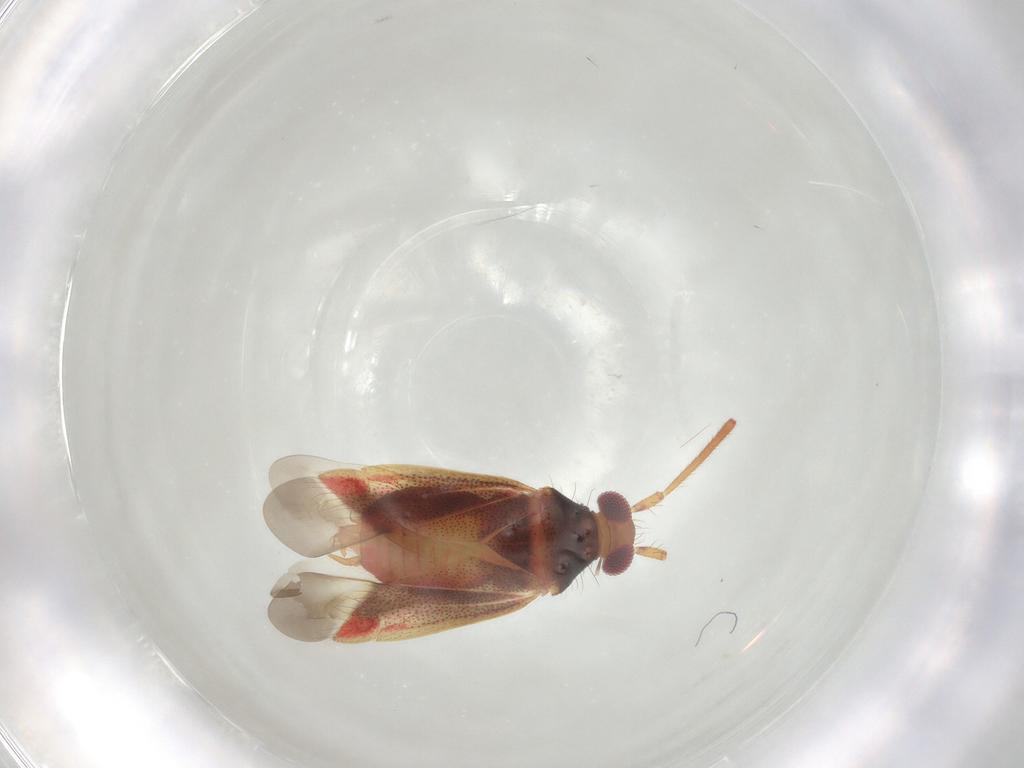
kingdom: Animalia
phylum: Arthropoda
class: Insecta
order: Hemiptera
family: Miridae
